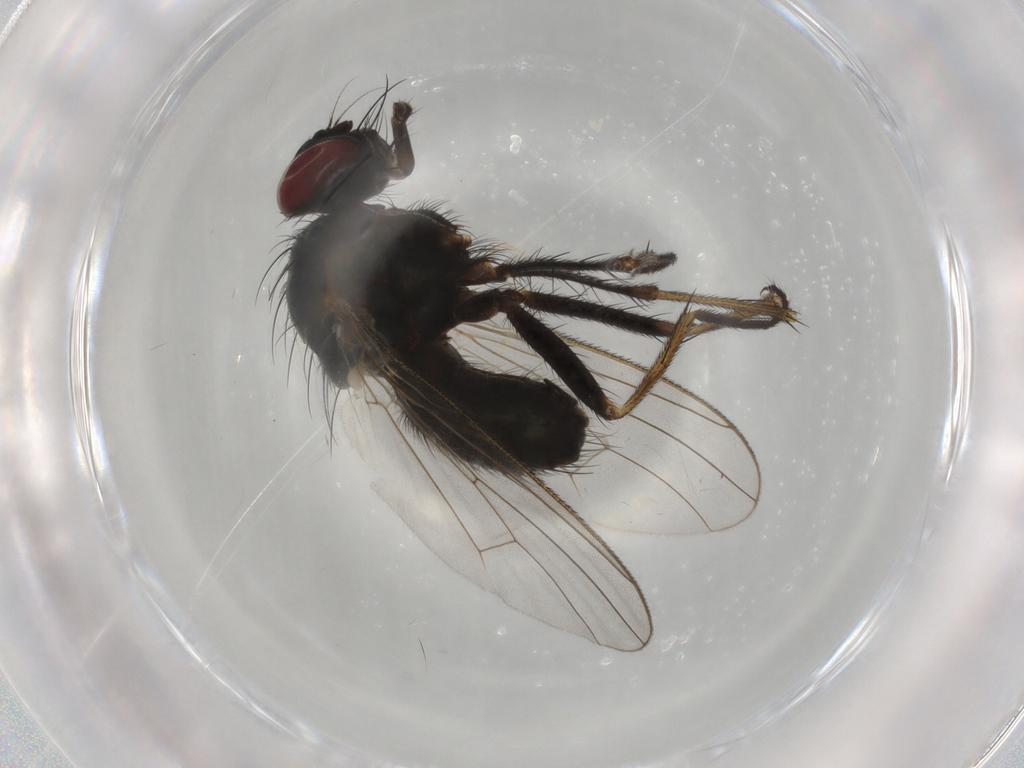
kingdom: Animalia
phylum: Arthropoda
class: Insecta
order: Diptera
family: Muscidae
